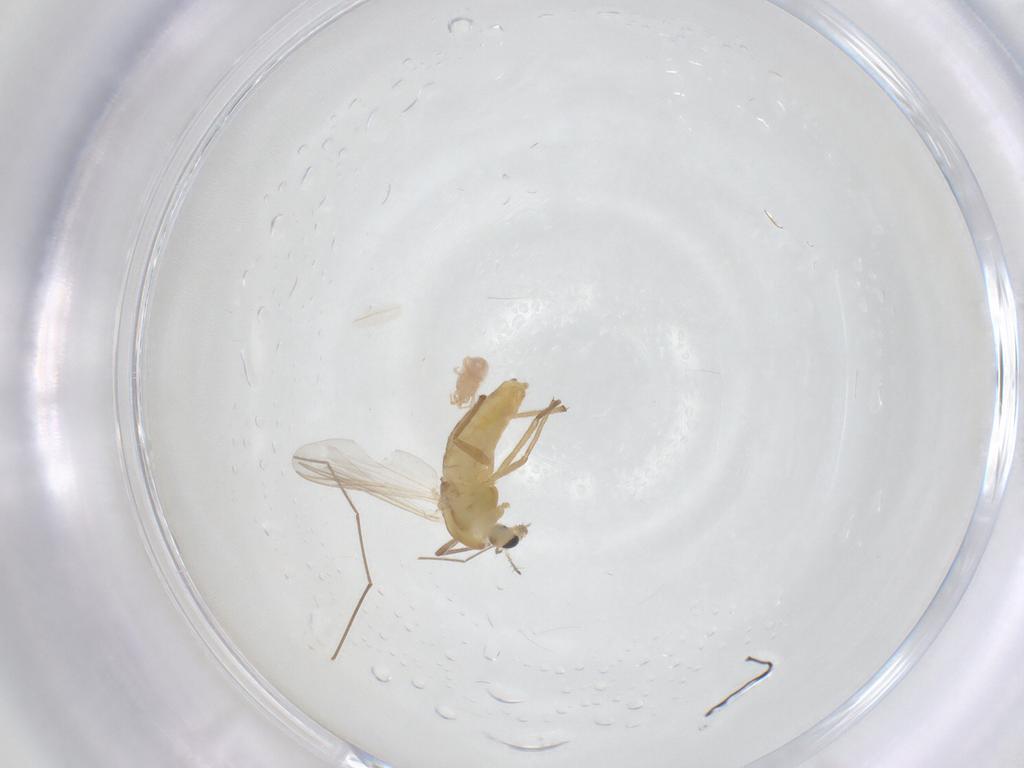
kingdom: Animalia
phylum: Arthropoda
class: Insecta
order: Diptera
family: Chironomidae
